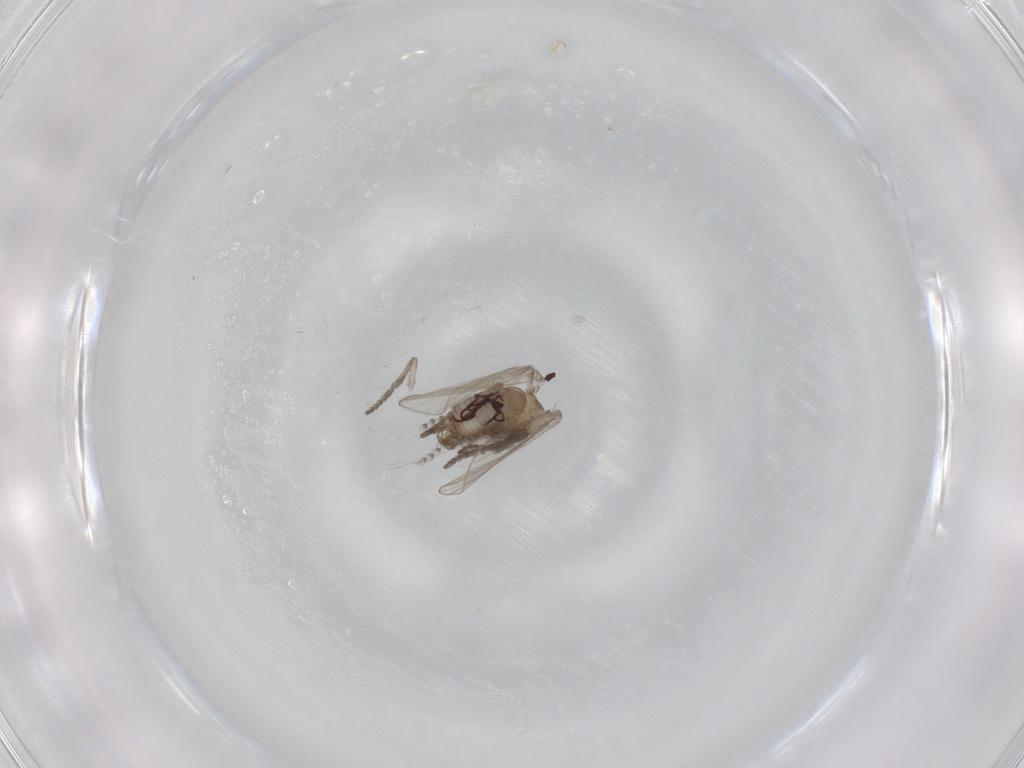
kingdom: Animalia
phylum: Arthropoda
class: Insecta
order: Diptera
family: Psychodidae
